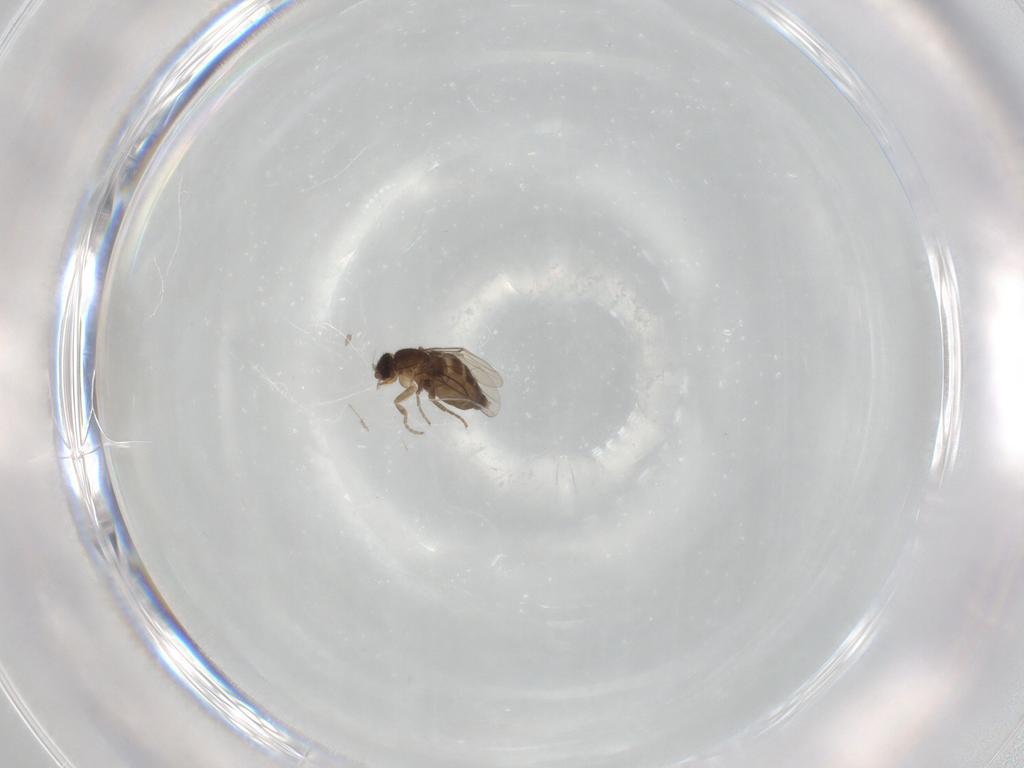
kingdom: Animalia
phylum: Arthropoda
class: Insecta
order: Diptera
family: Phoridae
